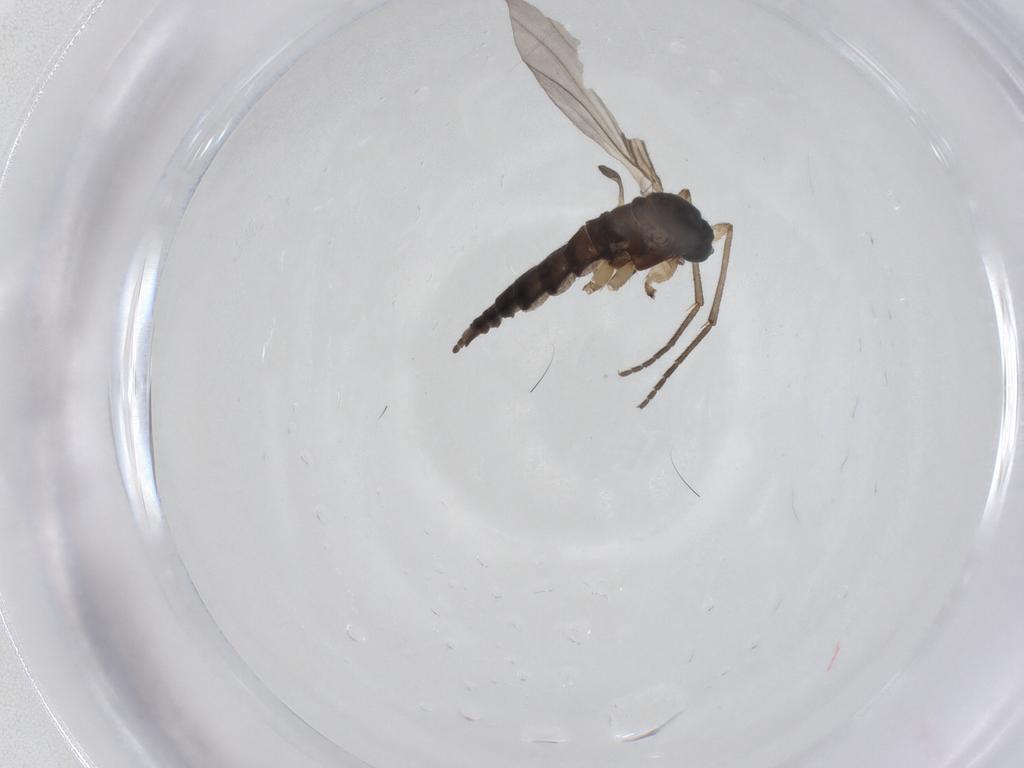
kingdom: Animalia
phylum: Arthropoda
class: Insecta
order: Diptera
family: Sciaridae
